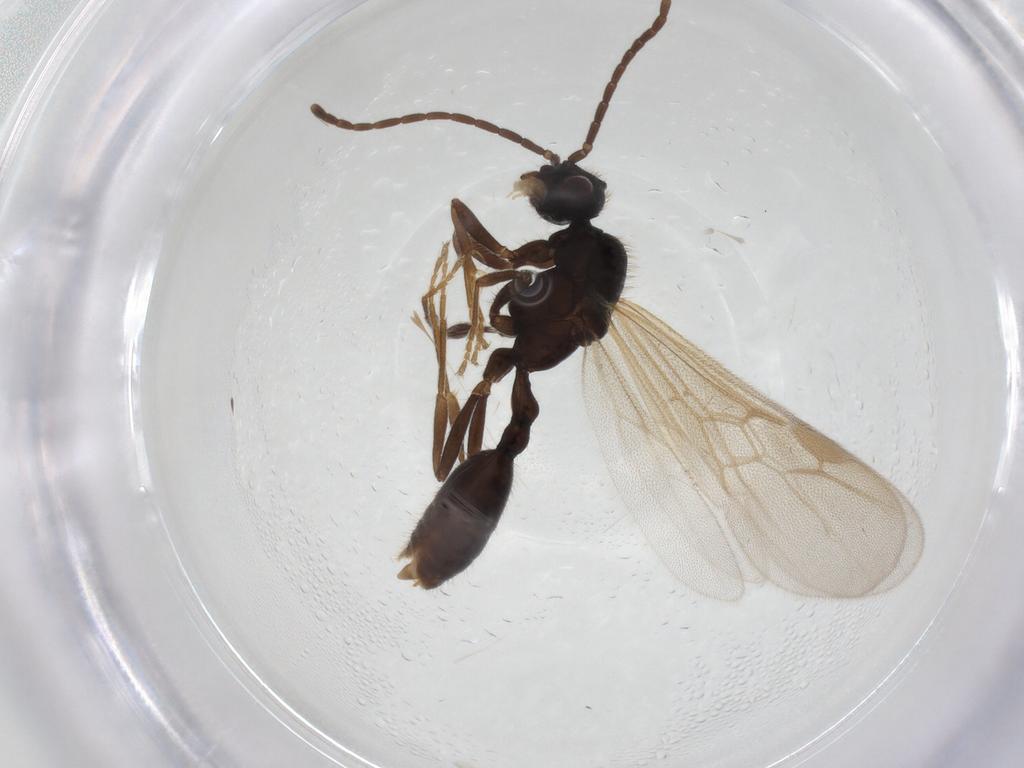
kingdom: Animalia
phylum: Arthropoda
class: Insecta
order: Hymenoptera
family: Formicidae
